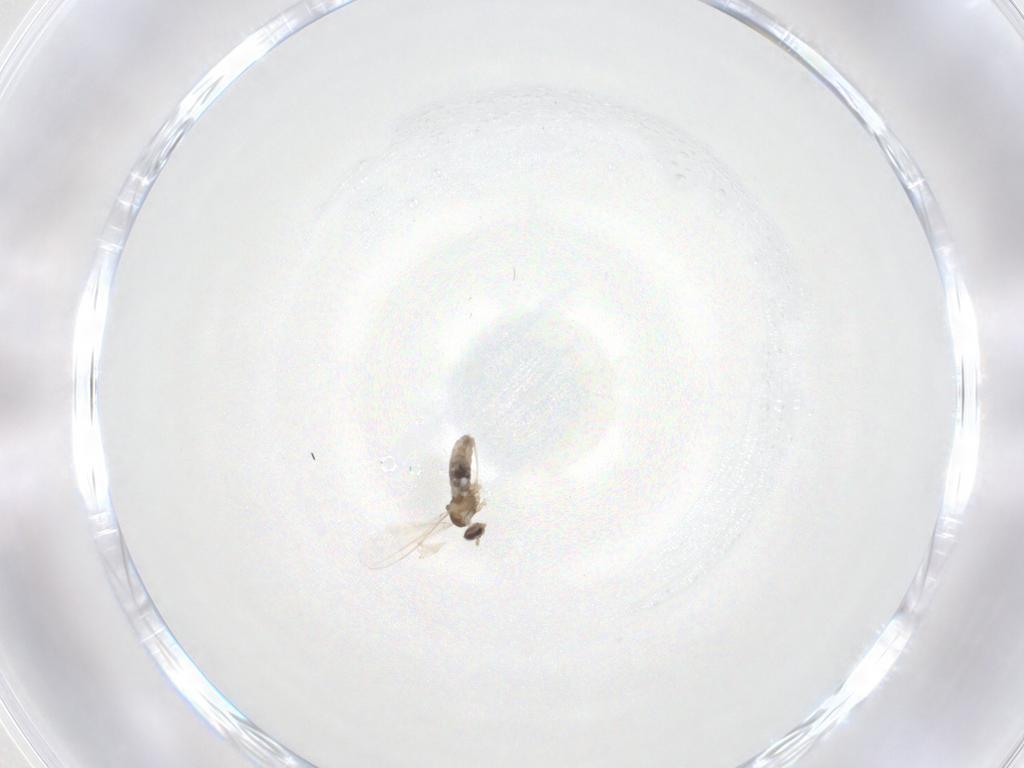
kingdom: Animalia
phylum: Arthropoda
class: Insecta
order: Diptera
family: Cecidomyiidae
